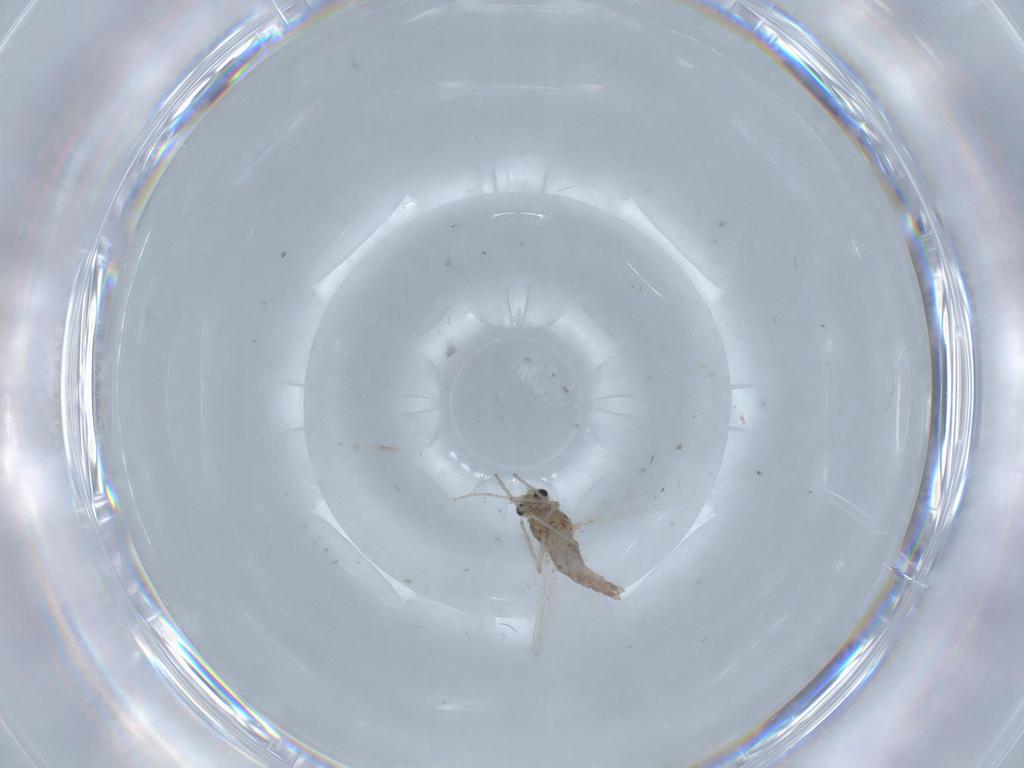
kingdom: Animalia
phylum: Arthropoda
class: Insecta
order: Diptera
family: Chironomidae
